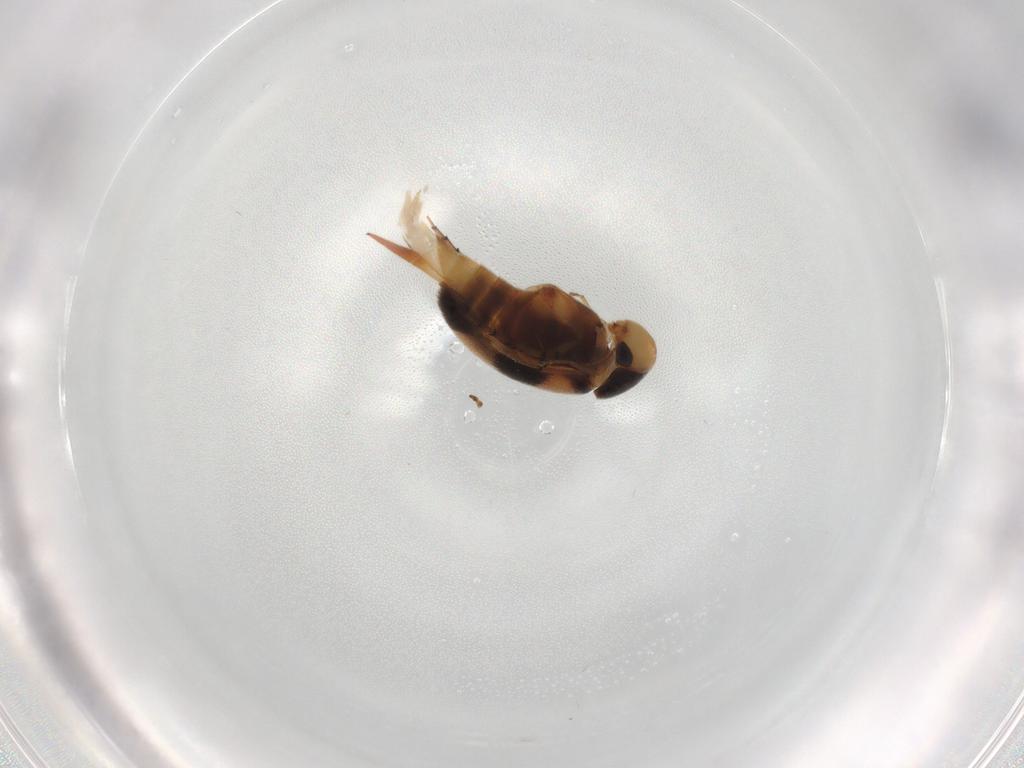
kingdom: Animalia
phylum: Arthropoda
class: Insecta
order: Coleoptera
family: Mordellidae
